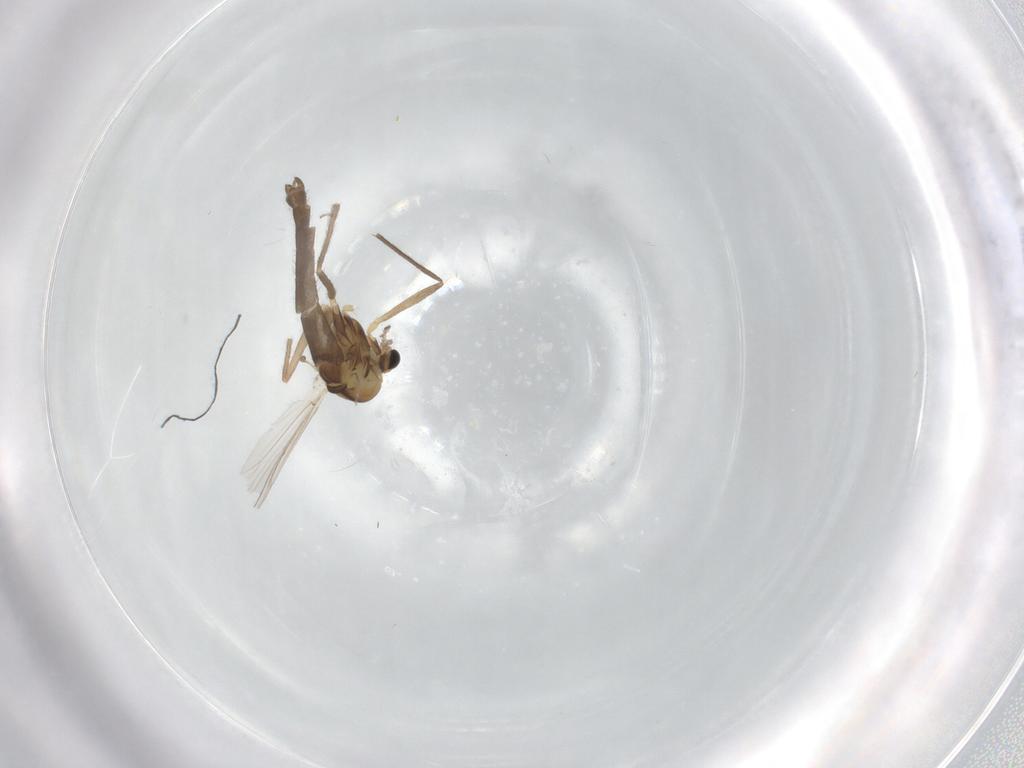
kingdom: Animalia
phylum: Arthropoda
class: Insecta
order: Diptera
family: Chironomidae
